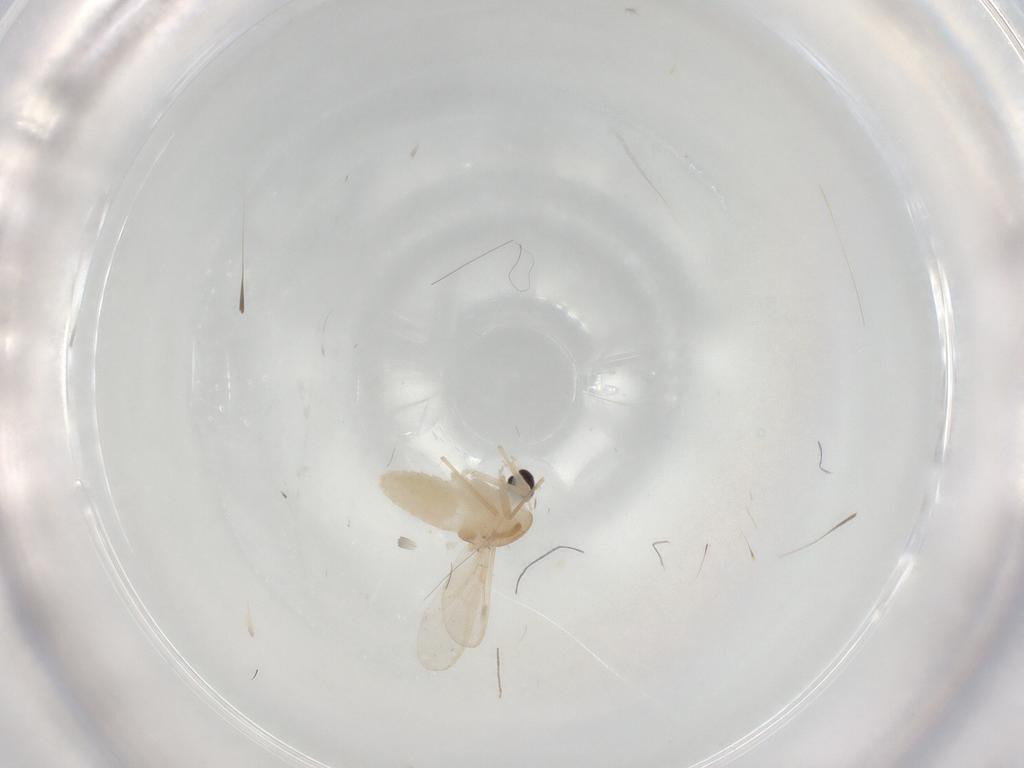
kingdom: Animalia
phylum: Arthropoda
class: Insecta
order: Diptera
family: Chironomidae
